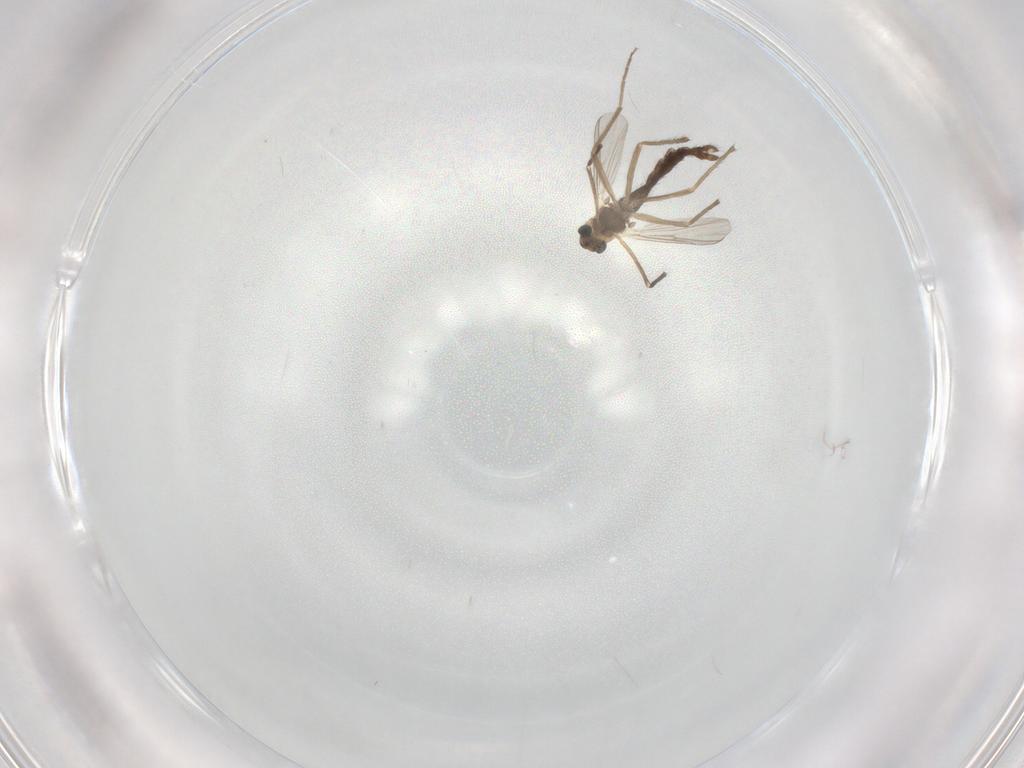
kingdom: Animalia
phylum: Arthropoda
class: Insecta
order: Diptera
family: Chironomidae
